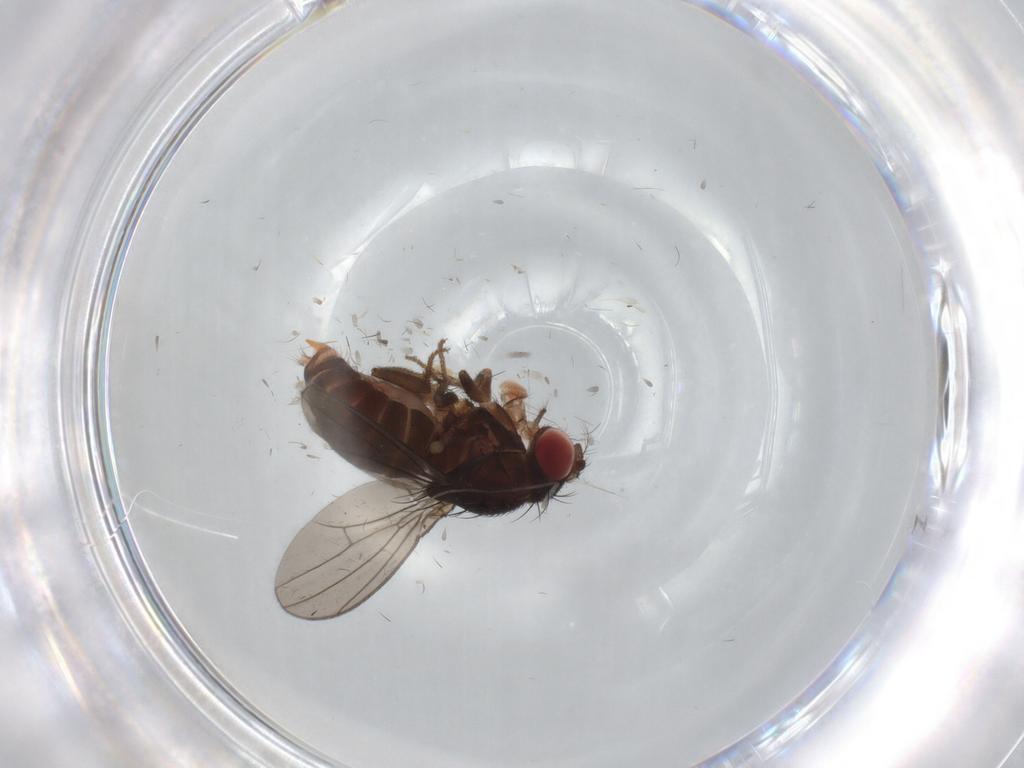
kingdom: Animalia
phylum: Arthropoda
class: Insecta
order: Diptera
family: Drosophilidae
